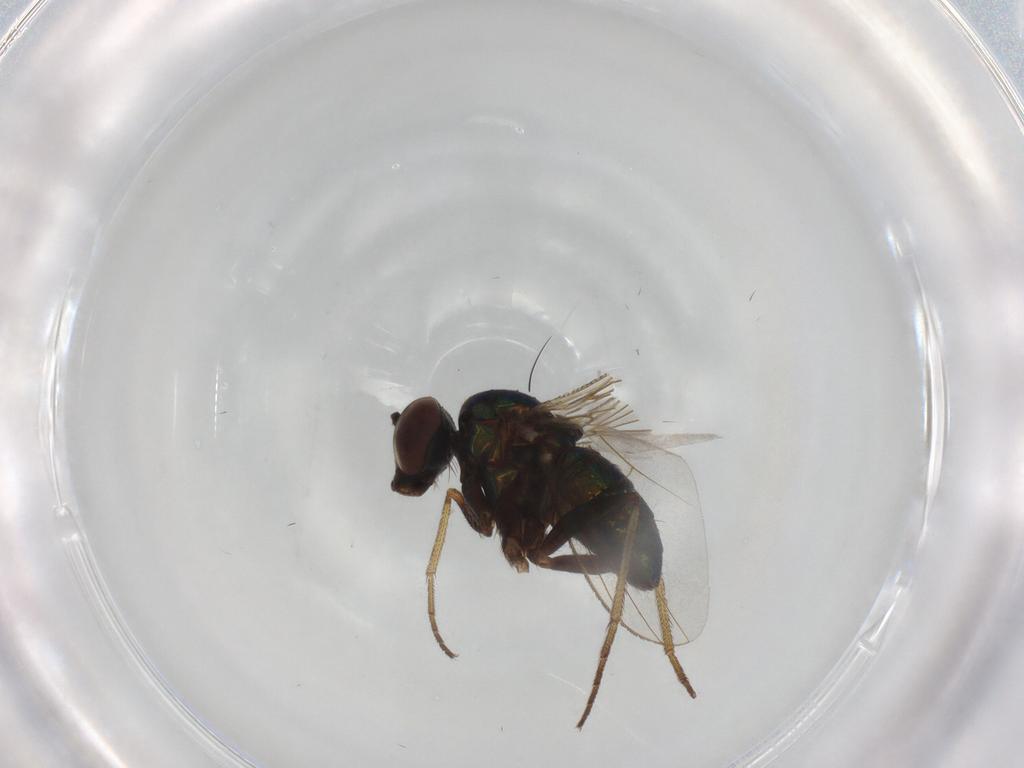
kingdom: Animalia
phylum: Arthropoda
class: Insecta
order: Diptera
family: Dolichopodidae
